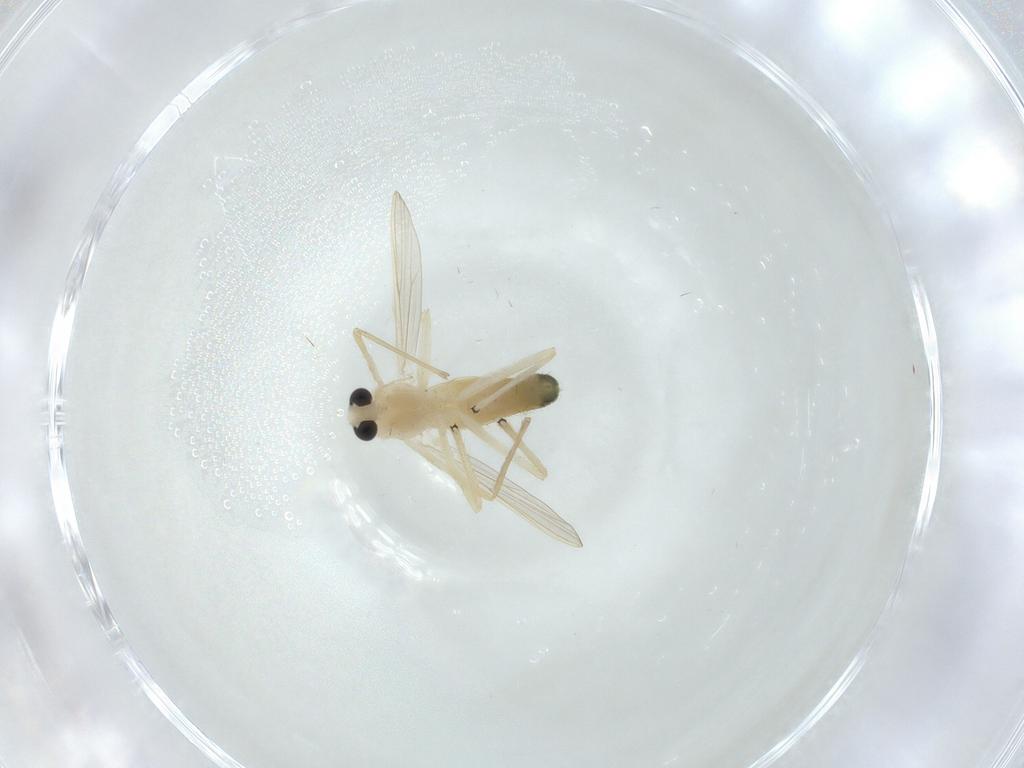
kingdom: Animalia
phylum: Arthropoda
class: Insecta
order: Diptera
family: Chironomidae
